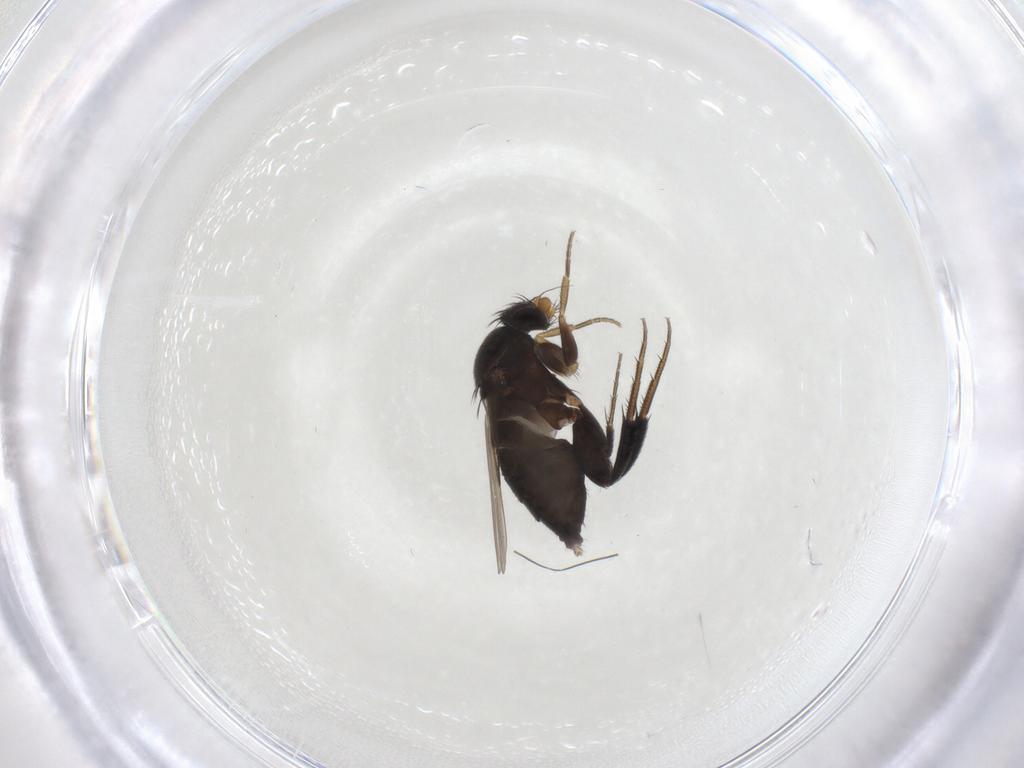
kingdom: Animalia
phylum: Arthropoda
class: Insecta
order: Diptera
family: Phoridae
